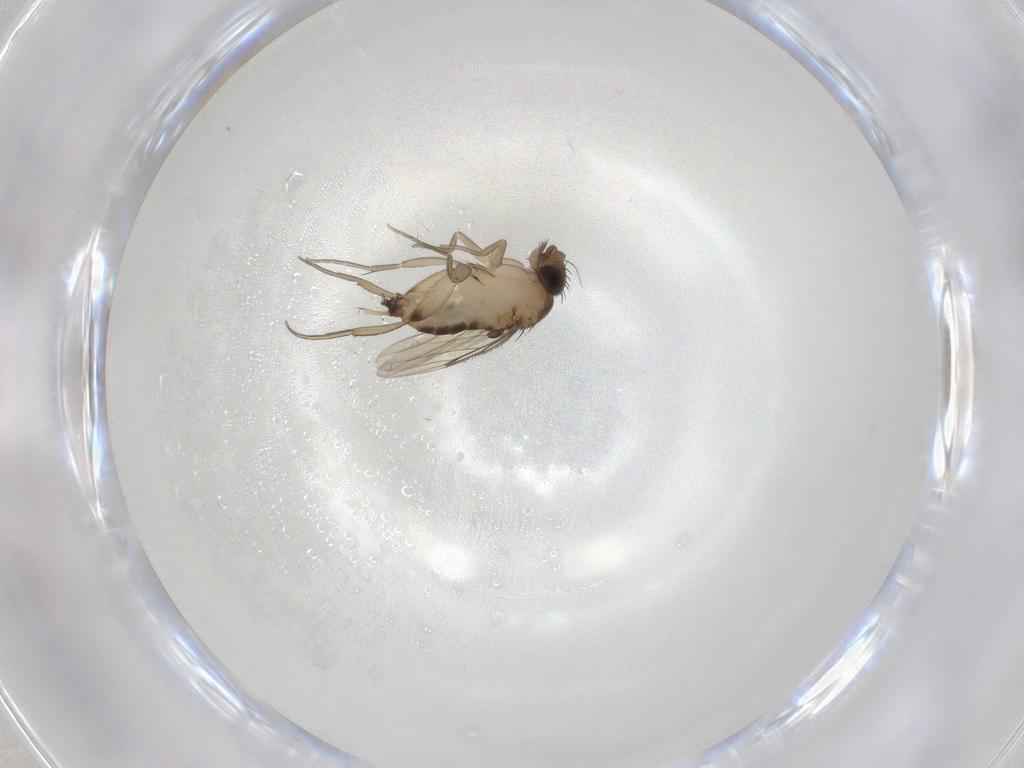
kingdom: Animalia
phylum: Arthropoda
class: Insecta
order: Diptera
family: Phoridae
